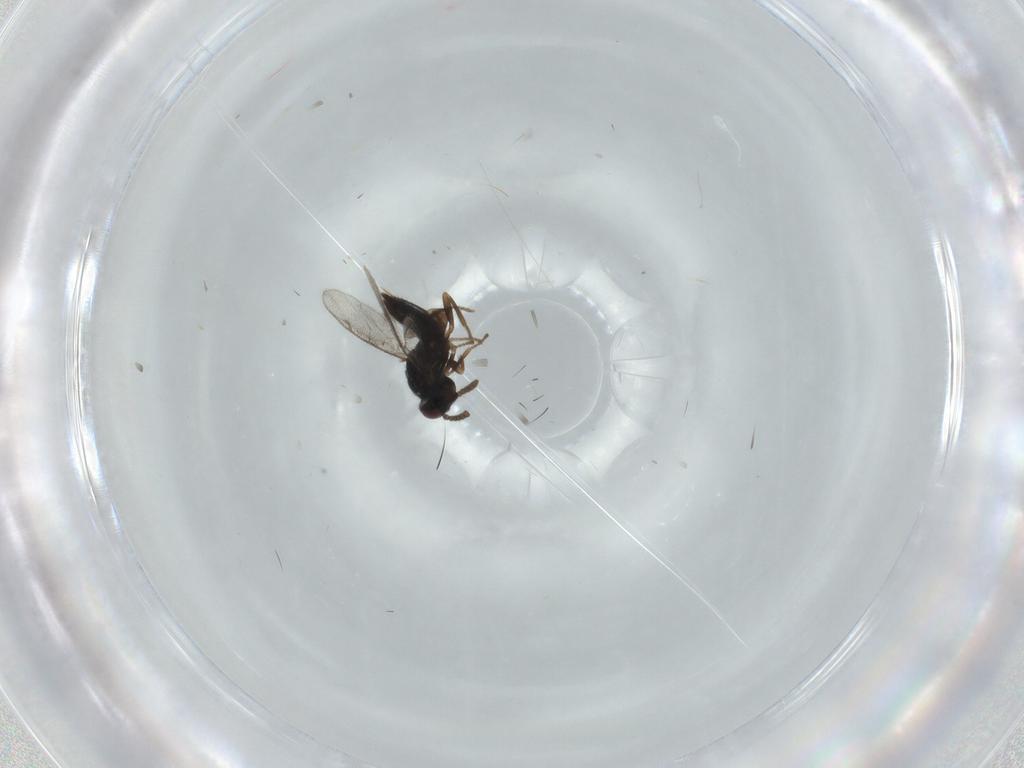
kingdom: Animalia
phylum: Arthropoda
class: Insecta
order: Hymenoptera
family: Pirenidae
